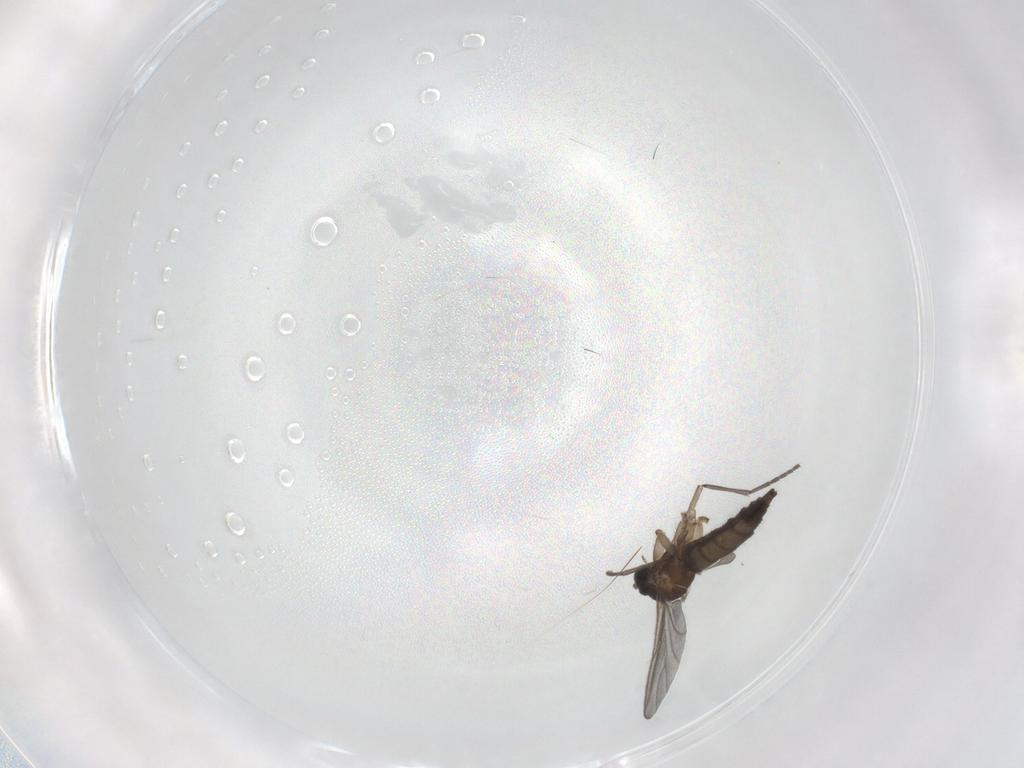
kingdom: Animalia
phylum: Arthropoda
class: Insecta
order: Diptera
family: Sciaridae
